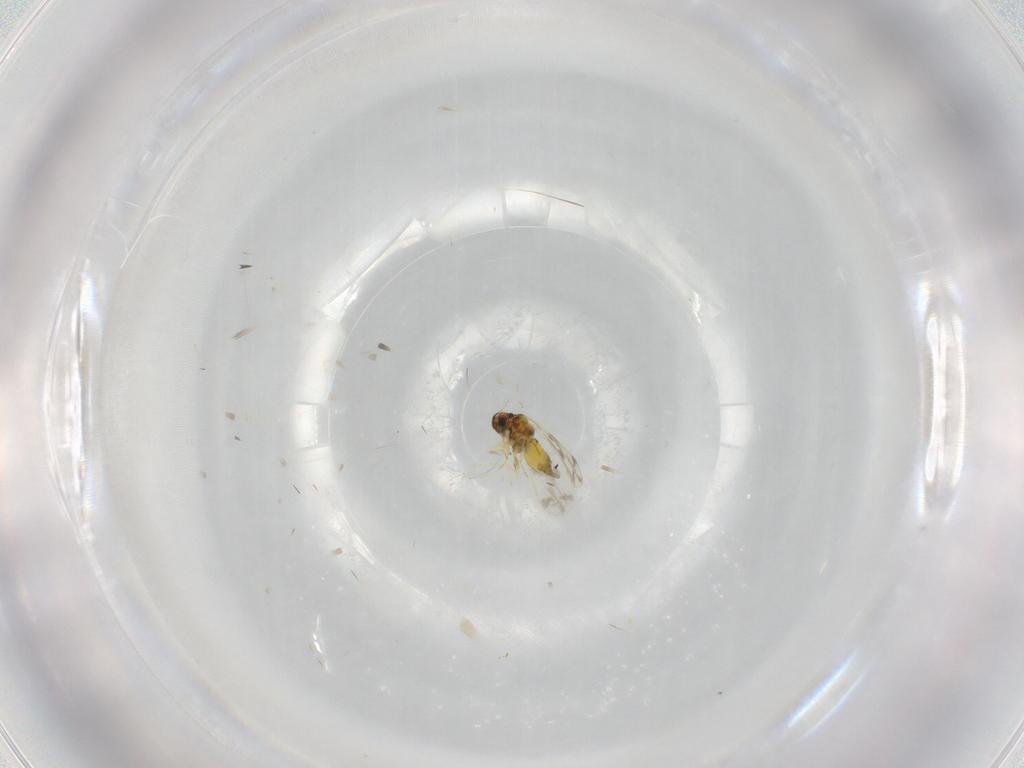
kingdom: Animalia
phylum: Arthropoda
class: Insecta
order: Hemiptera
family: Aleyrodidae
